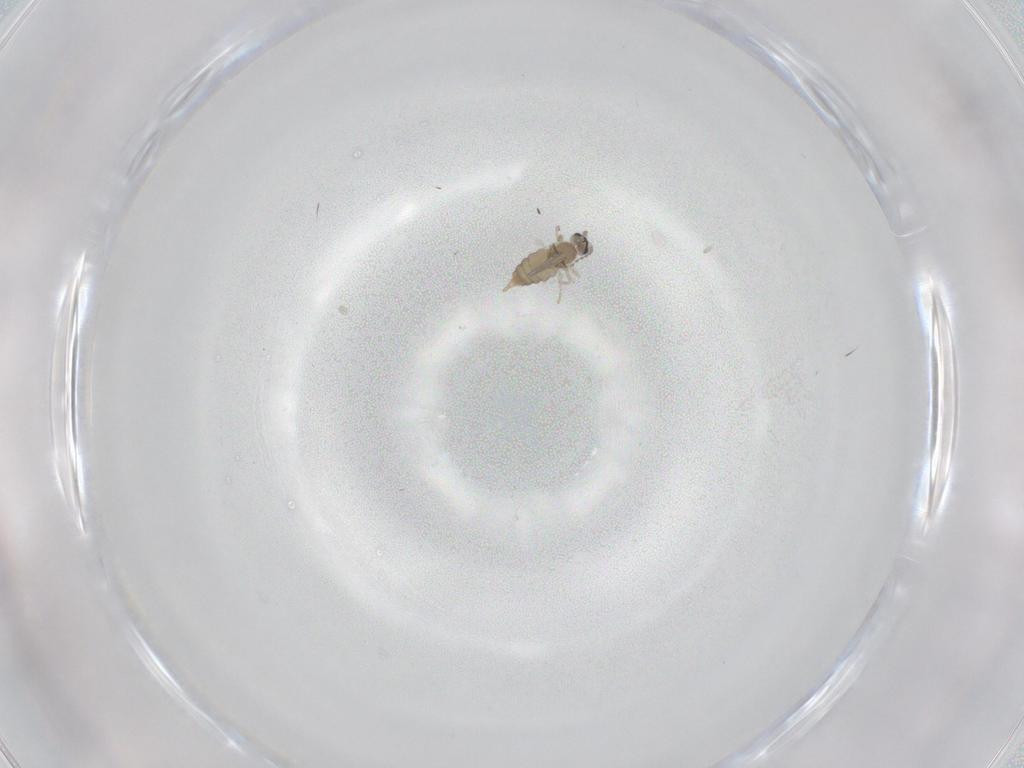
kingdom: Animalia
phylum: Arthropoda
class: Insecta
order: Diptera
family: Cecidomyiidae
